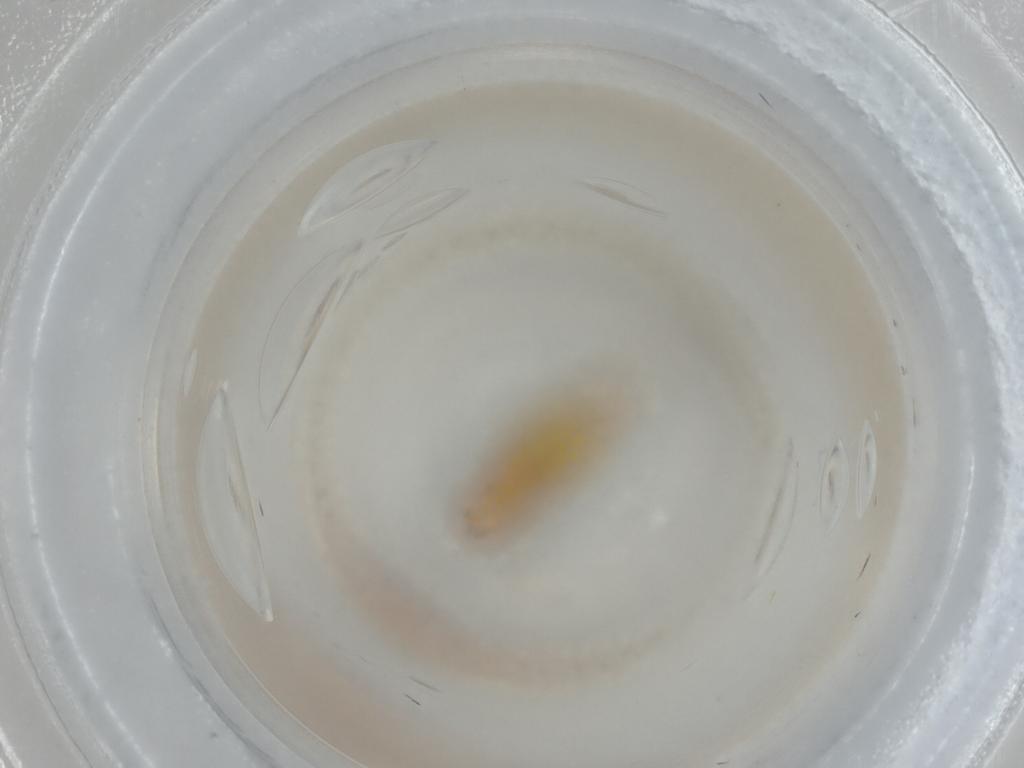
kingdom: Animalia
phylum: Arthropoda
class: Insecta
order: Diptera
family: Chloropidae
